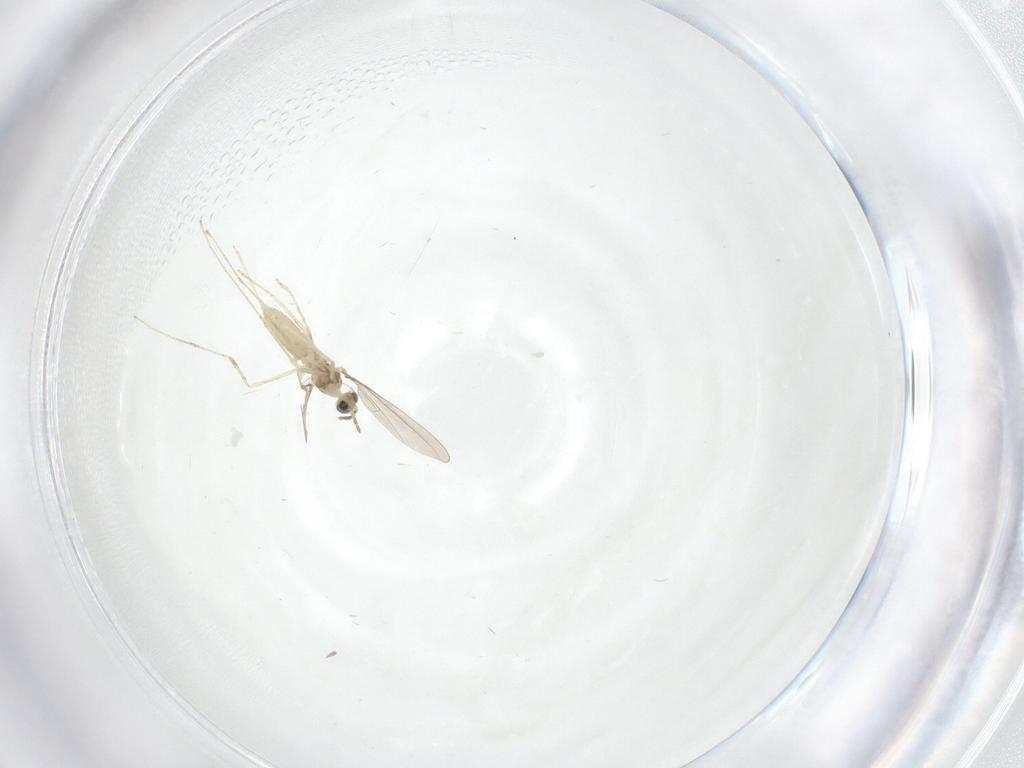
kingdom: Animalia
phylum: Arthropoda
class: Insecta
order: Diptera
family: Cecidomyiidae
